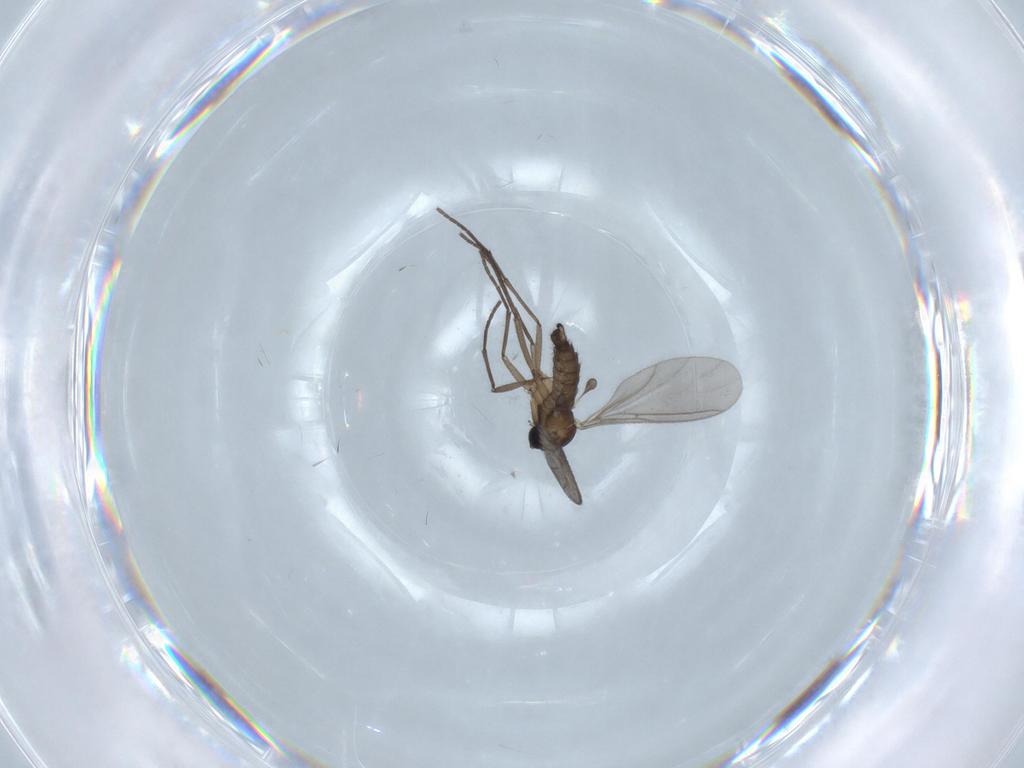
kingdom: Animalia
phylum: Arthropoda
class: Insecta
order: Diptera
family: Sciaridae
